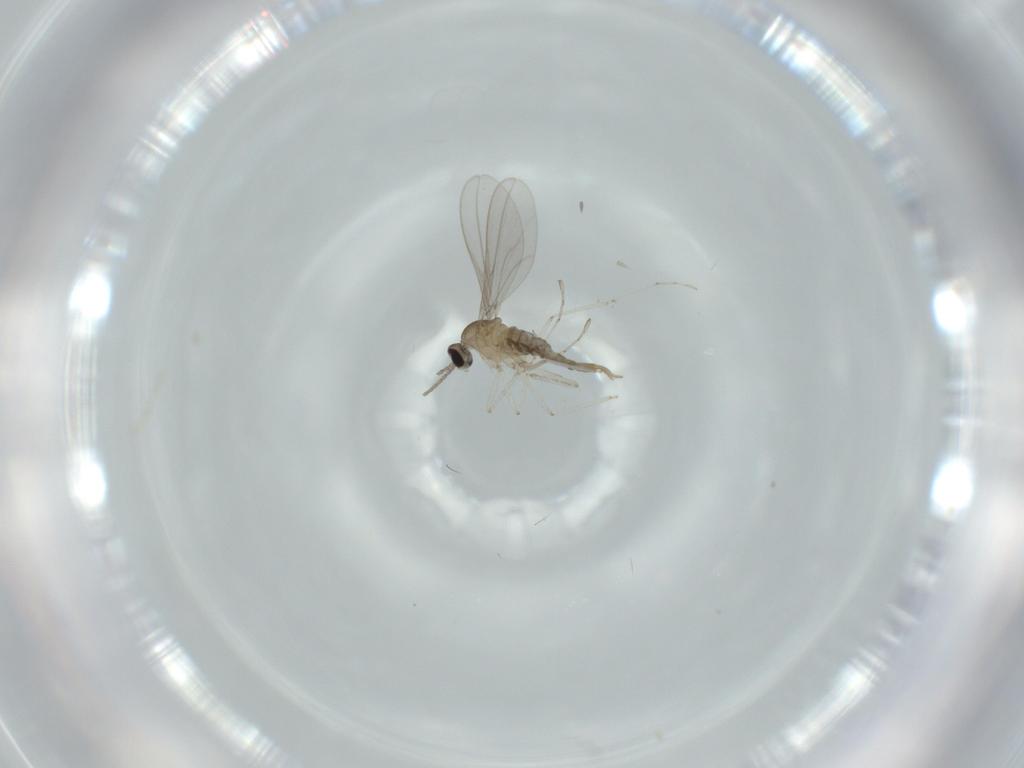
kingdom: Animalia
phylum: Arthropoda
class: Insecta
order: Diptera
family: Cecidomyiidae
